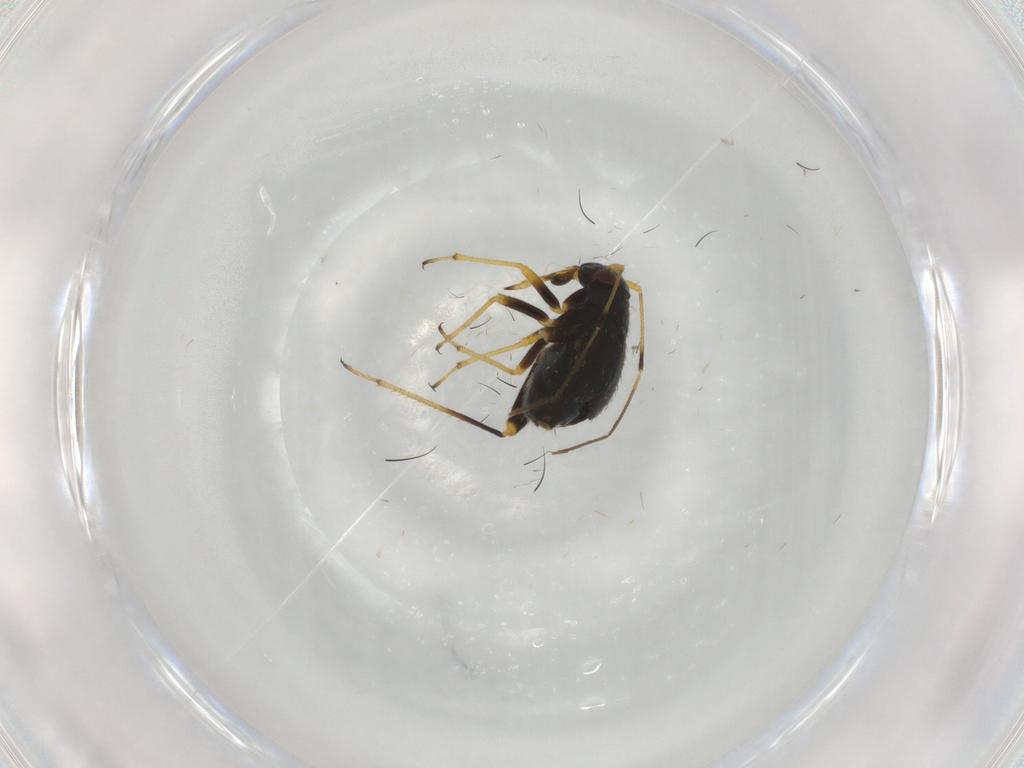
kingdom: Animalia
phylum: Arthropoda
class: Insecta
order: Hemiptera
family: Miridae
